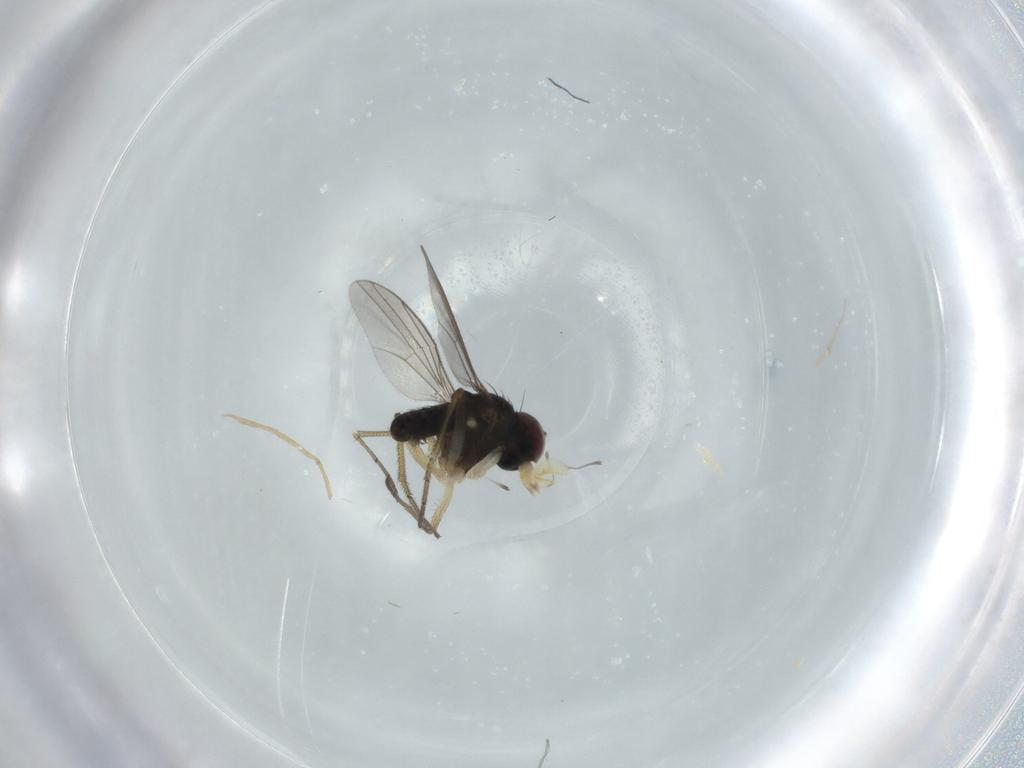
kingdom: Animalia
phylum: Arthropoda
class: Insecta
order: Diptera
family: Dolichopodidae
